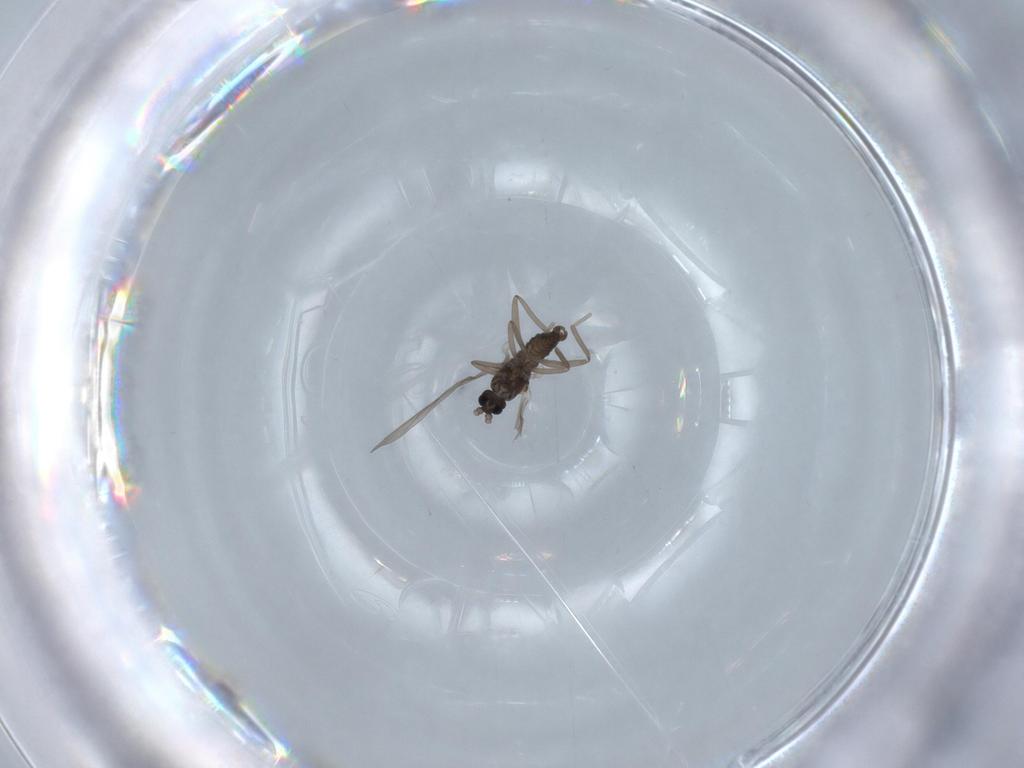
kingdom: Animalia
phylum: Arthropoda
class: Insecta
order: Diptera
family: Cecidomyiidae
